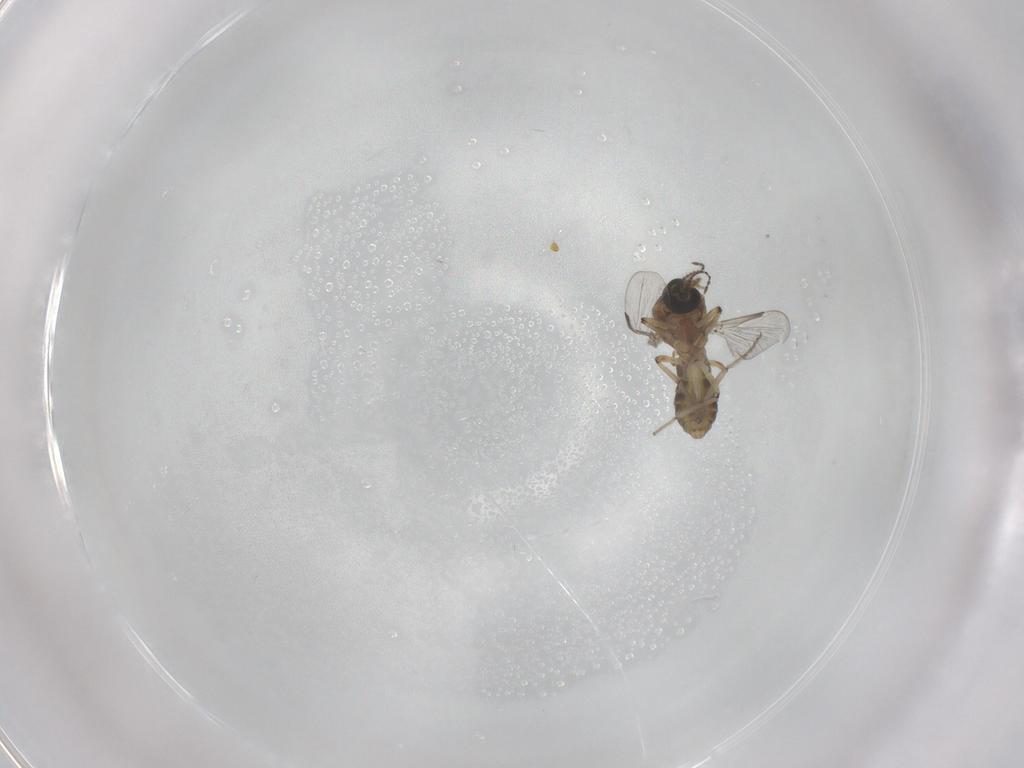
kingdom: Animalia
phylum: Arthropoda
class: Insecta
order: Diptera
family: Ceratopogonidae
